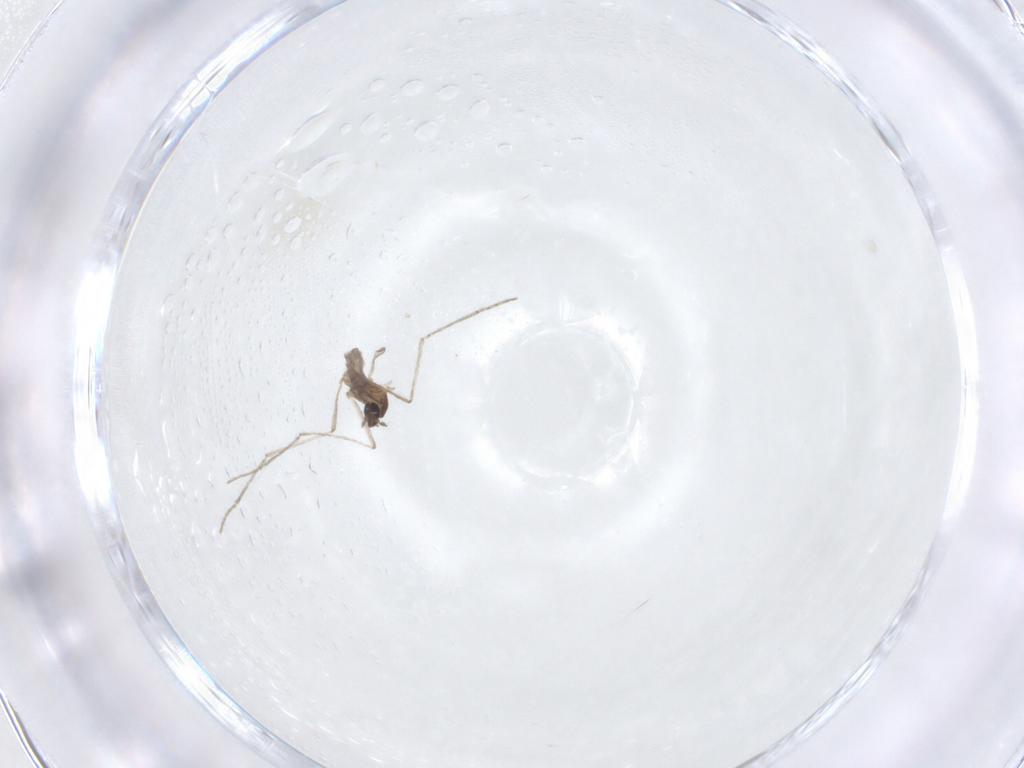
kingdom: Animalia
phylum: Arthropoda
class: Insecta
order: Diptera
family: Cecidomyiidae
